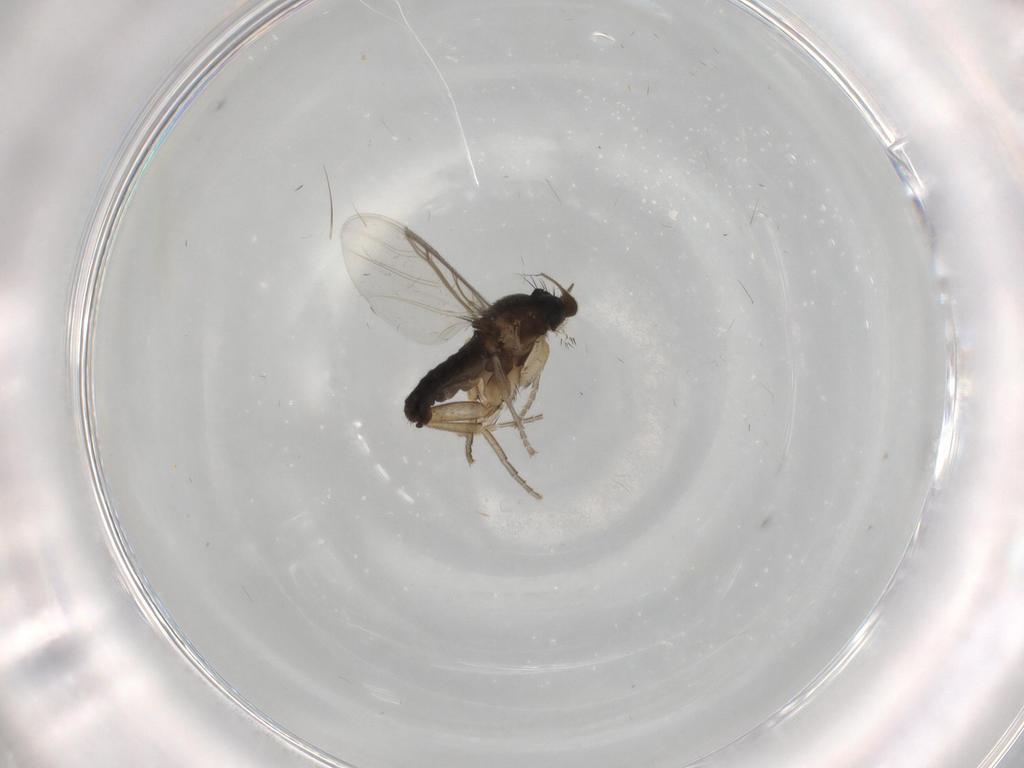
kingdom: Animalia
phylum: Arthropoda
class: Insecta
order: Diptera
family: Phoridae
